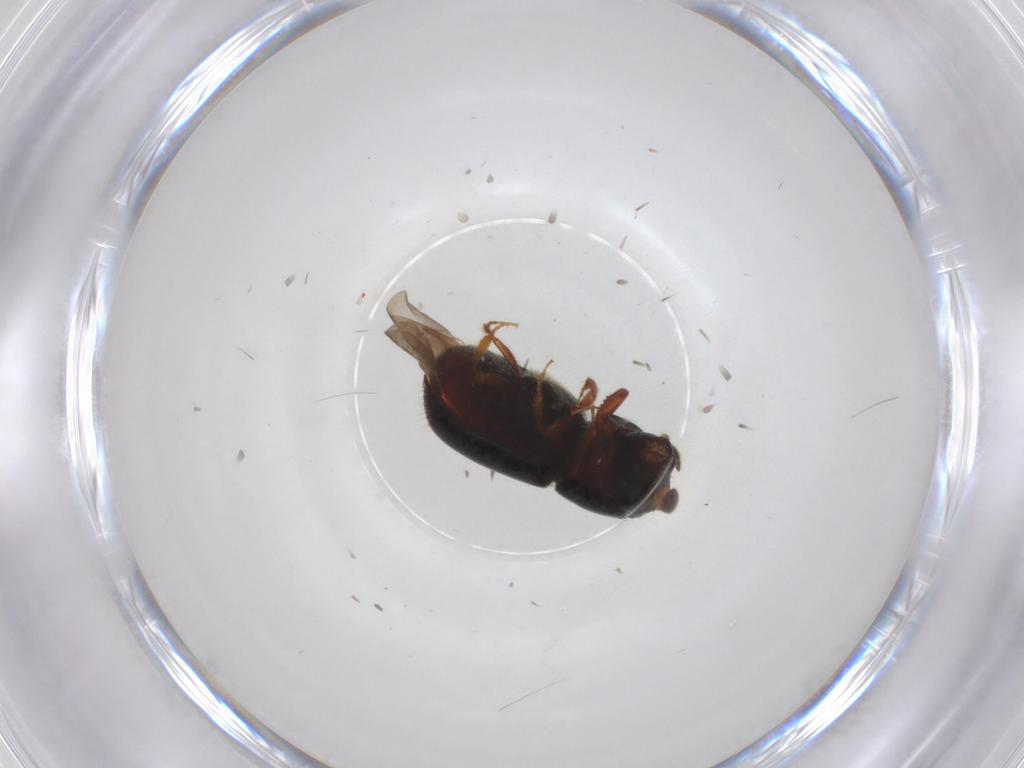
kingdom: Animalia
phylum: Arthropoda
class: Insecta
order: Coleoptera
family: Curculionidae
